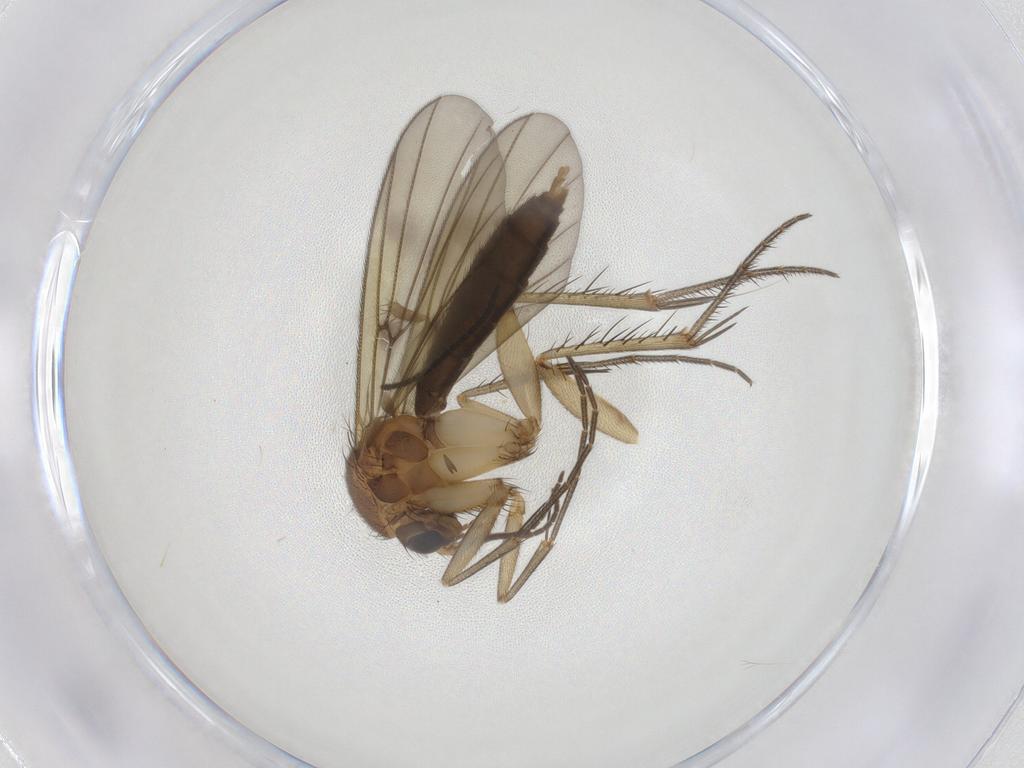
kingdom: Animalia
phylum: Arthropoda
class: Insecta
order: Diptera
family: Mycetophilidae
